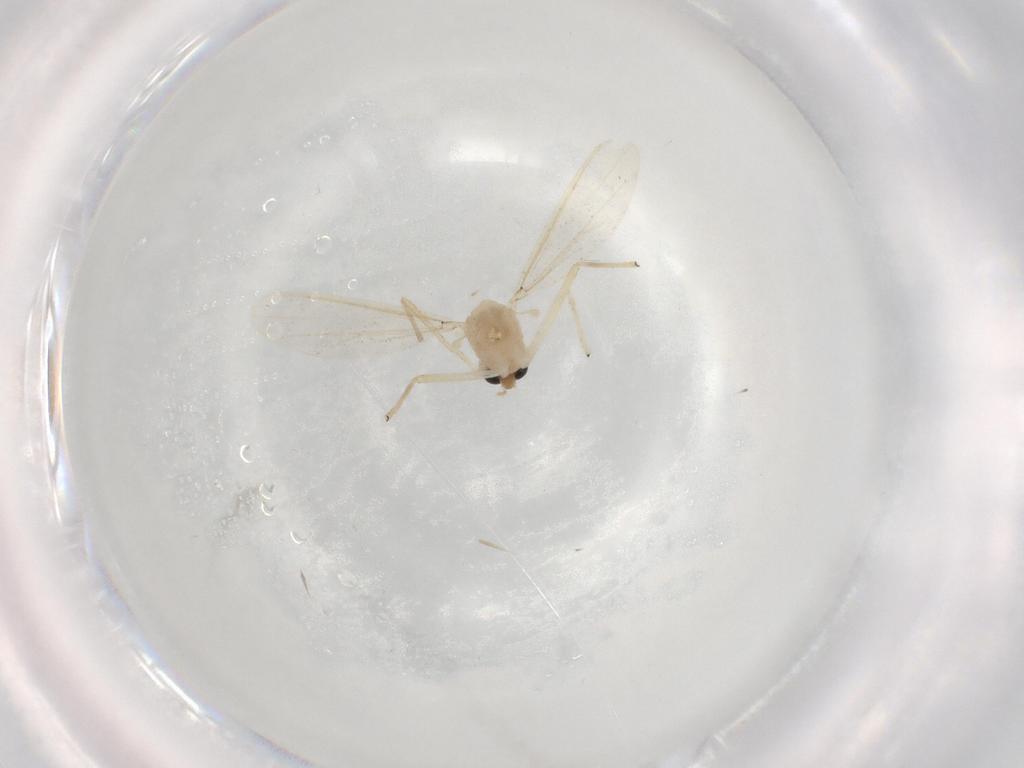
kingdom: Animalia
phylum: Arthropoda
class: Insecta
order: Diptera
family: Chironomidae
